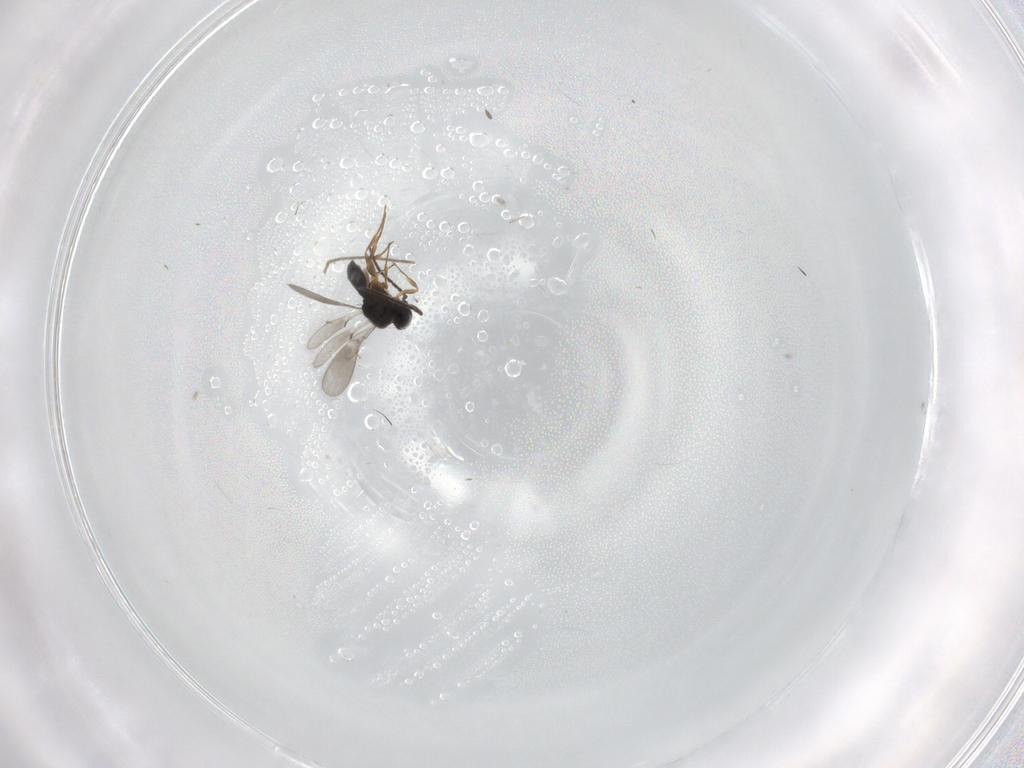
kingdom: Animalia
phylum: Arthropoda
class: Insecta
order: Hymenoptera
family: Scelionidae
